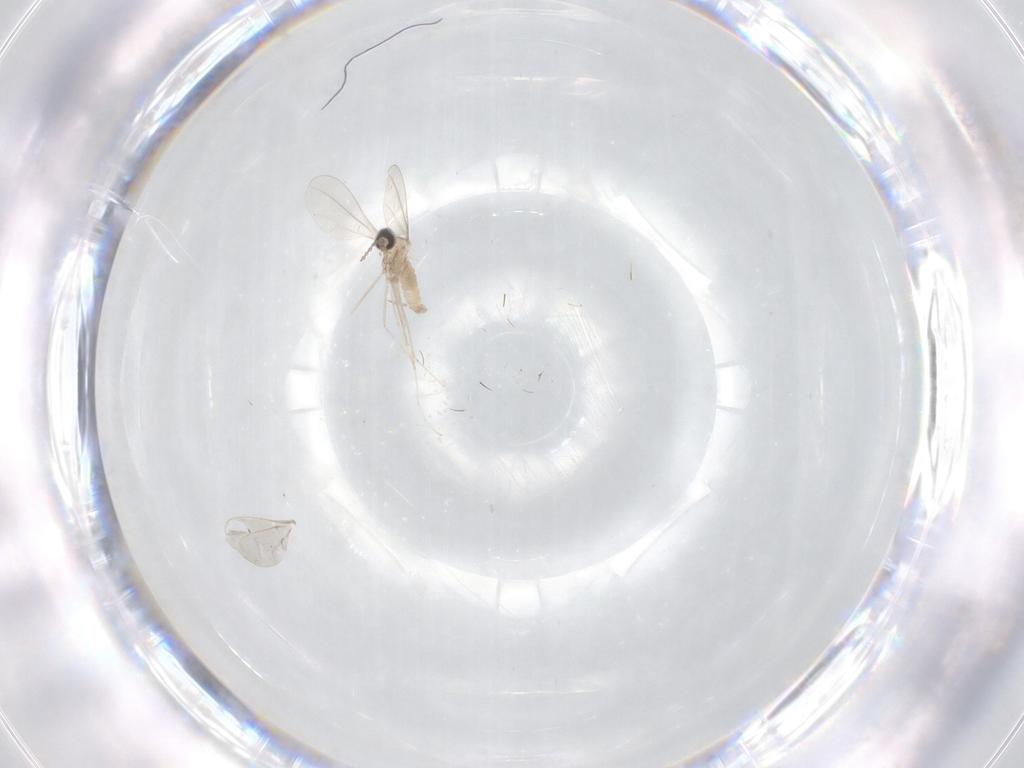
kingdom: Animalia
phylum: Arthropoda
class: Insecta
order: Diptera
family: Cecidomyiidae
